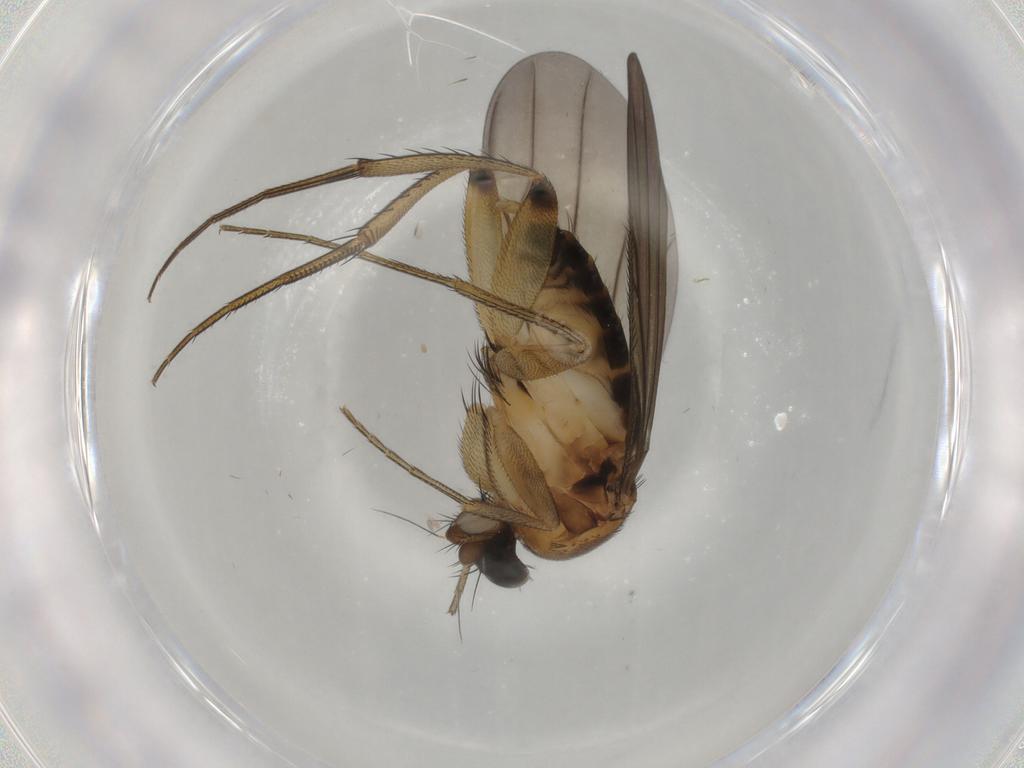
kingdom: Animalia
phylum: Arthropoda
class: Insecta
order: Diptera
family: Phoridae
